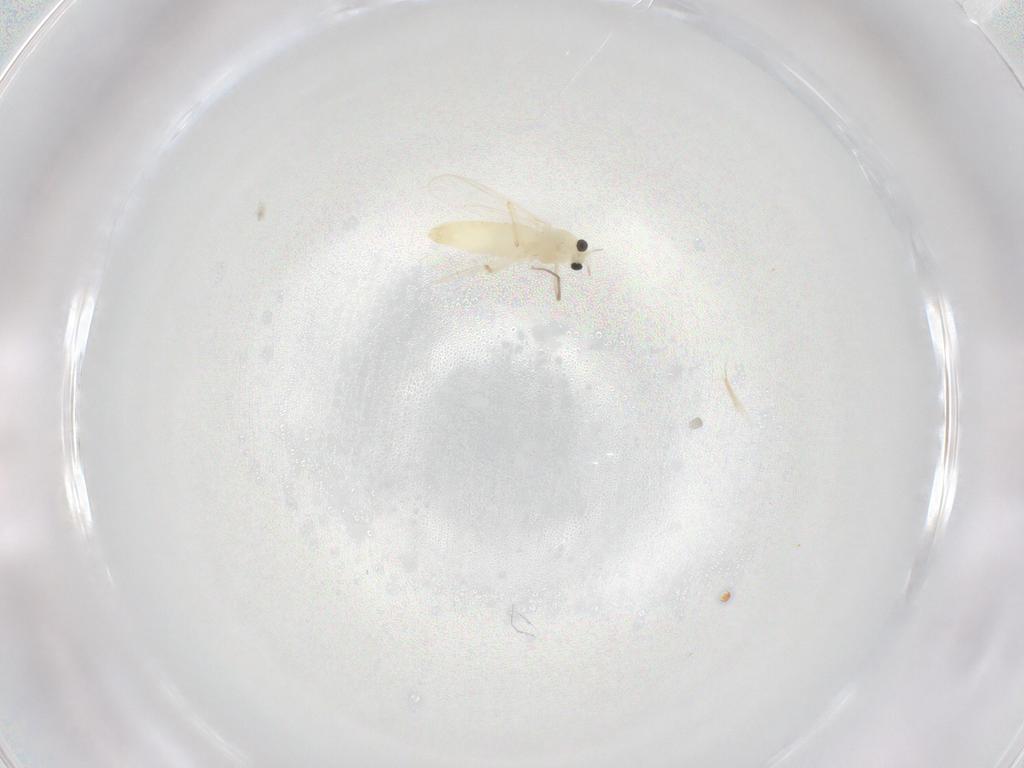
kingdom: Animalia
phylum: Arthropoda
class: Insecta
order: Diptera
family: Chironomidae
